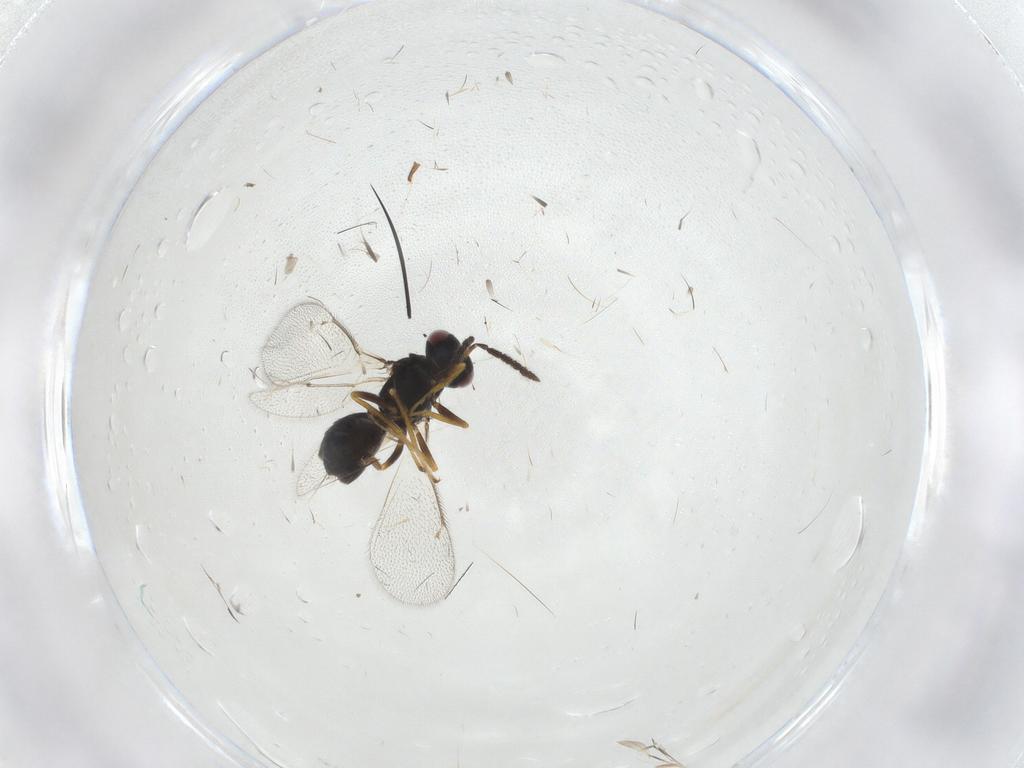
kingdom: Animalia
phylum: Arthropoda
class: Insecta
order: Hymenoptera
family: Eulophidae
